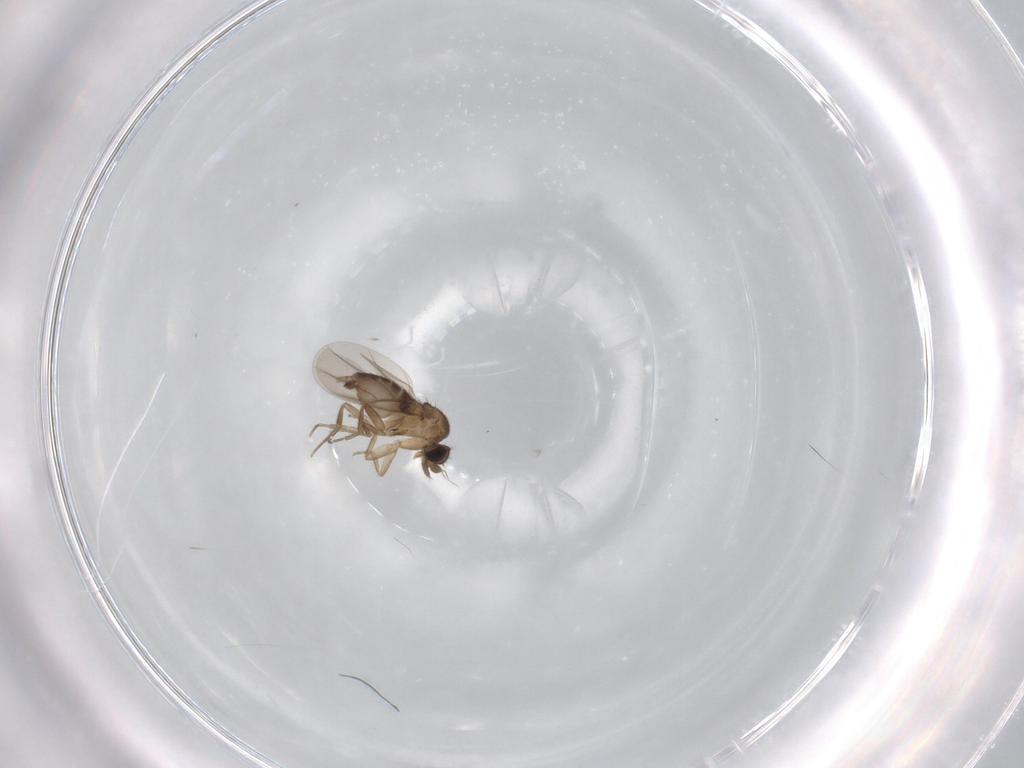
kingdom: Animalia
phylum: Arthropoda
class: Insecta
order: Diptera
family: Phoridae
